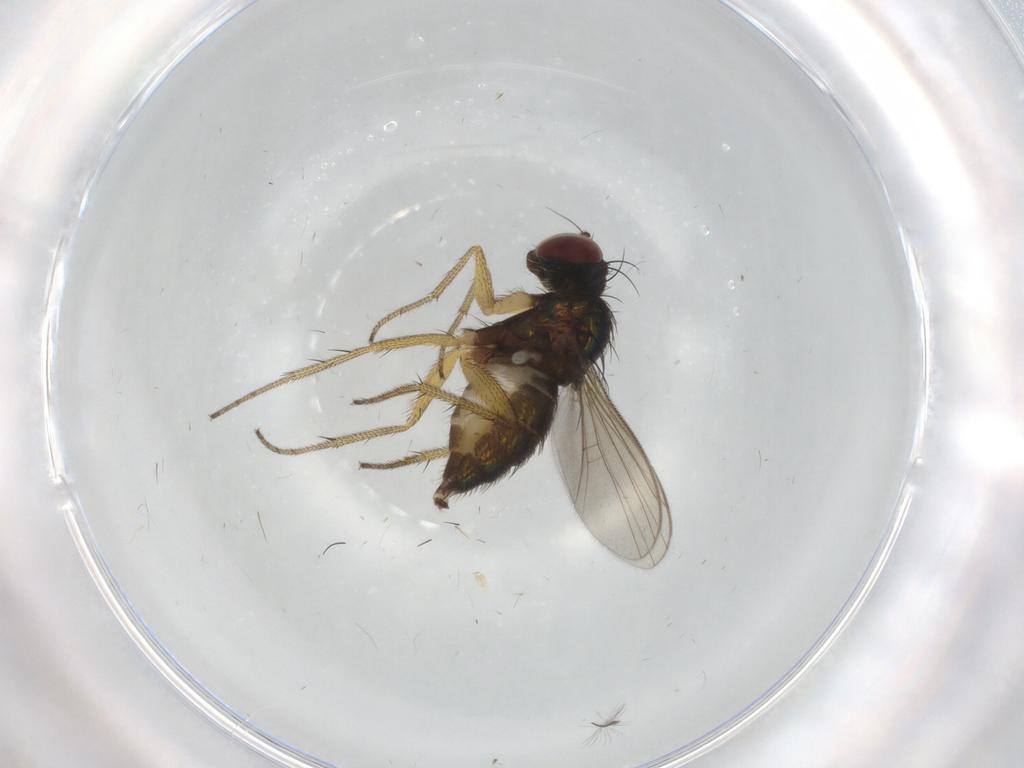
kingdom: Animalia
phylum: Arthropoda
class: Insecta
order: Diptera
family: Dolichopodidae
